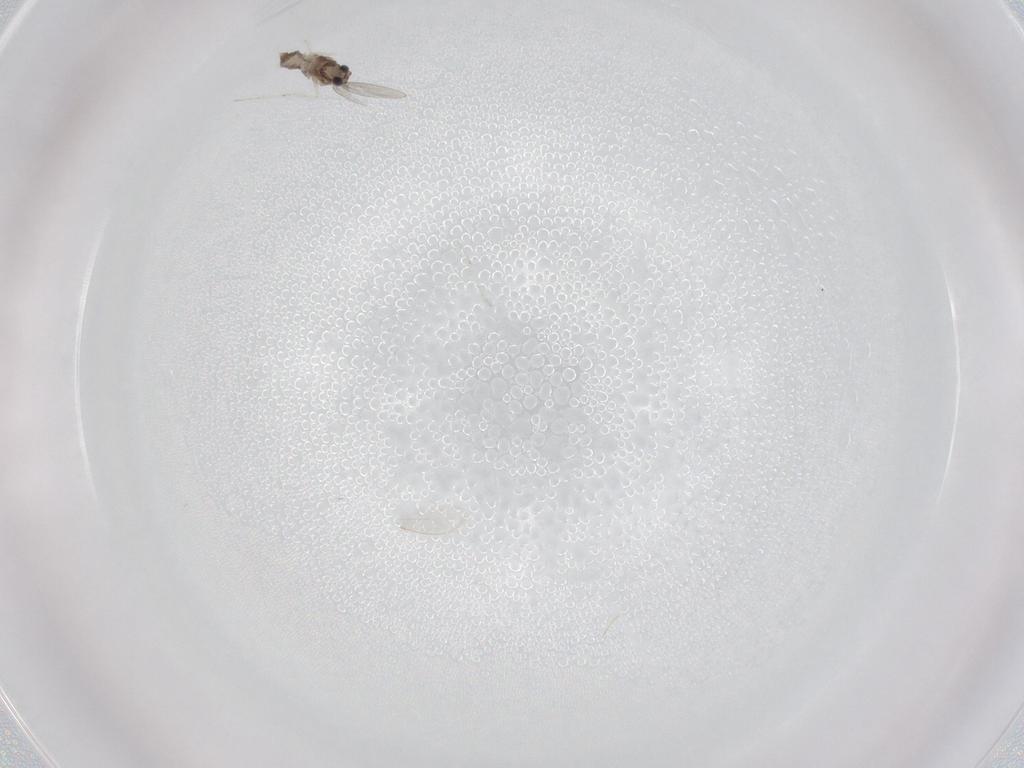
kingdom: Animalia
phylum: Arthropoda
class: Insecta
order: Diptera
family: Cecidomyiidae
